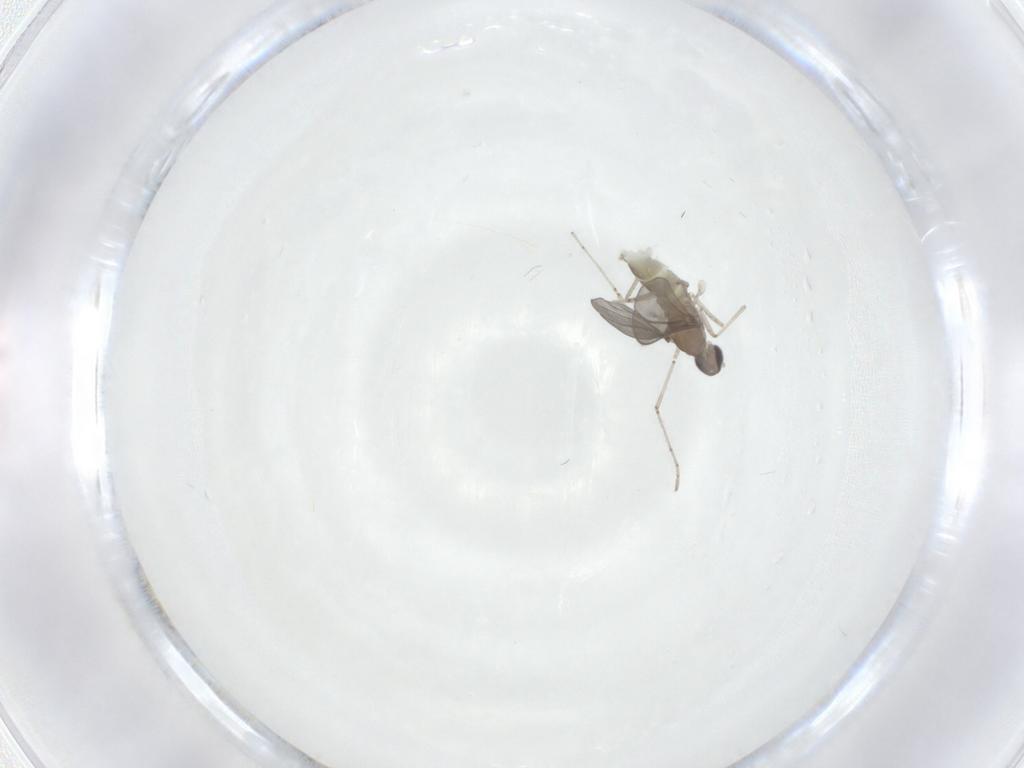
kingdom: Animalia
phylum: Arthropoda
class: Insecta
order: Diptera
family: Cecidomyiidae
